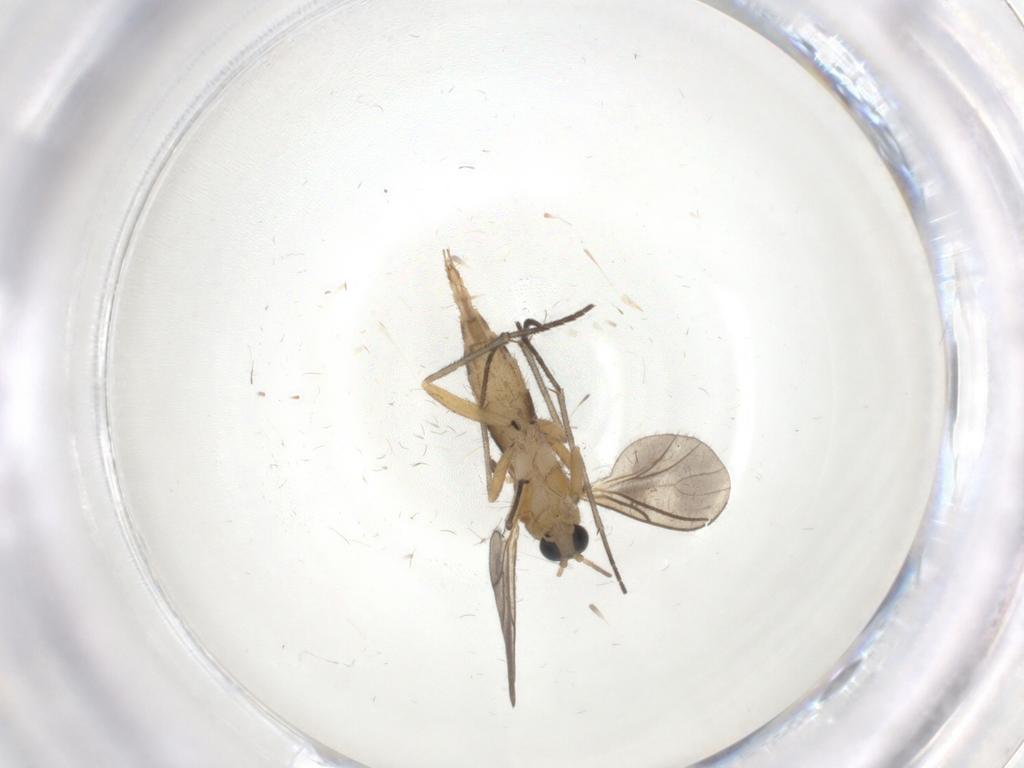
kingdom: Animalia
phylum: Arthropoda
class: Insecta
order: Diptera
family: Sciaridae
